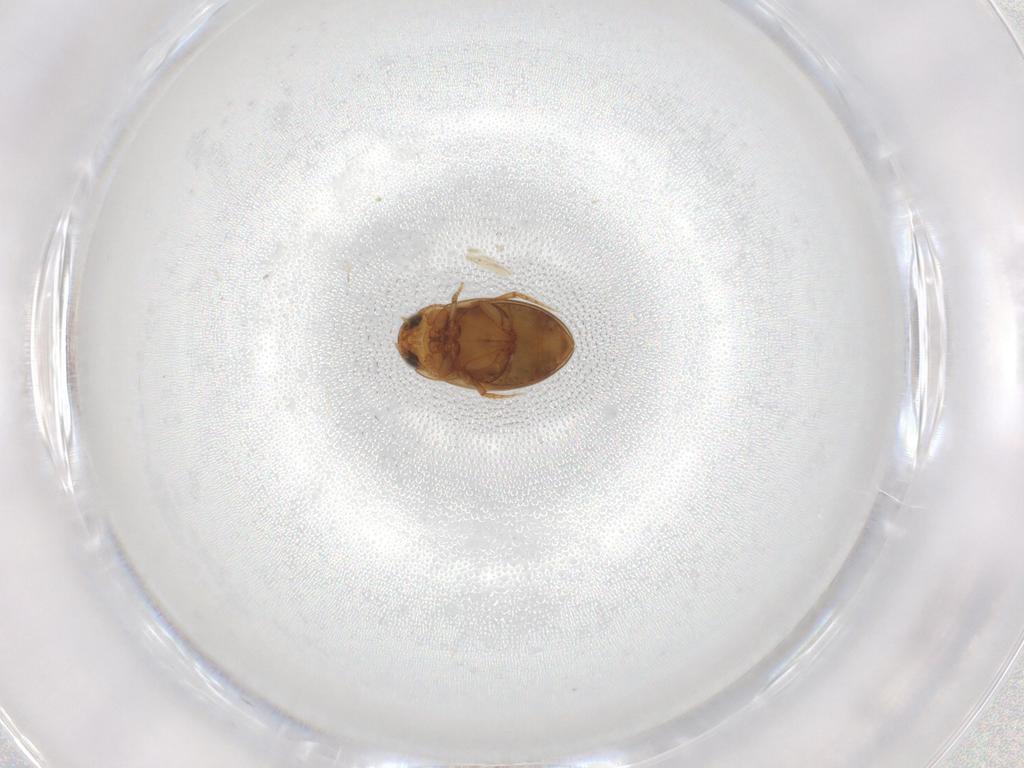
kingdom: Animalia
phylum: Arthropoda
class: Insecta
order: Coleoptera
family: Dytiscidae
